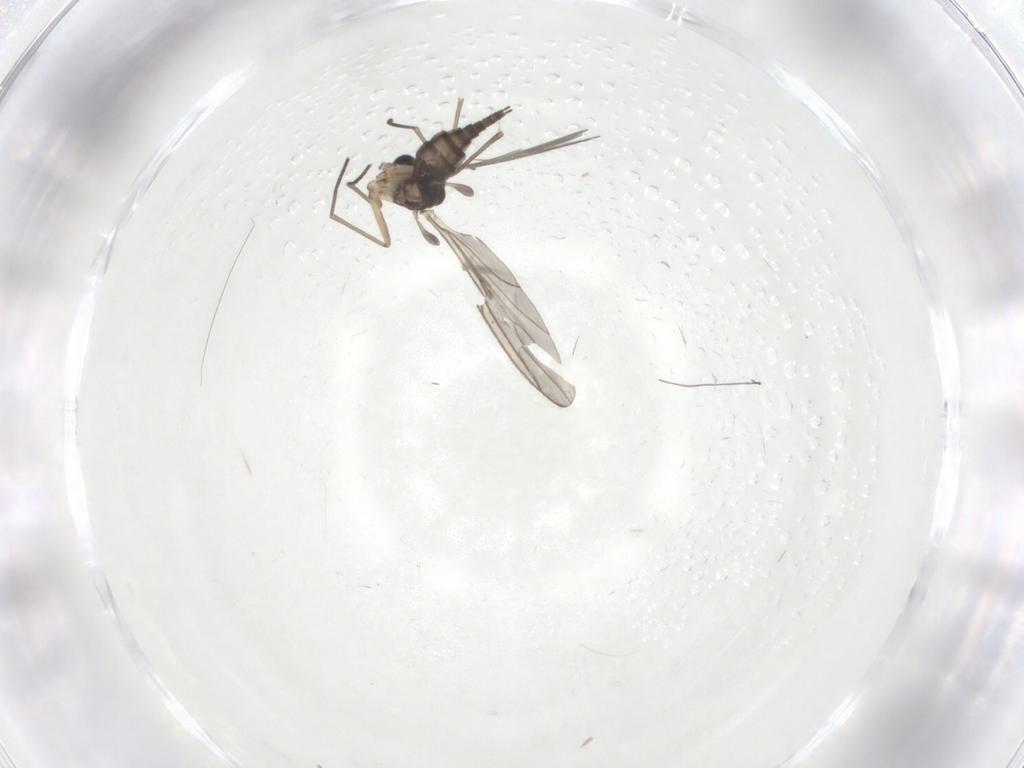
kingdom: Animalia
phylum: Arthropoda
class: Insecta
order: Diptera
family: Sciaridae
